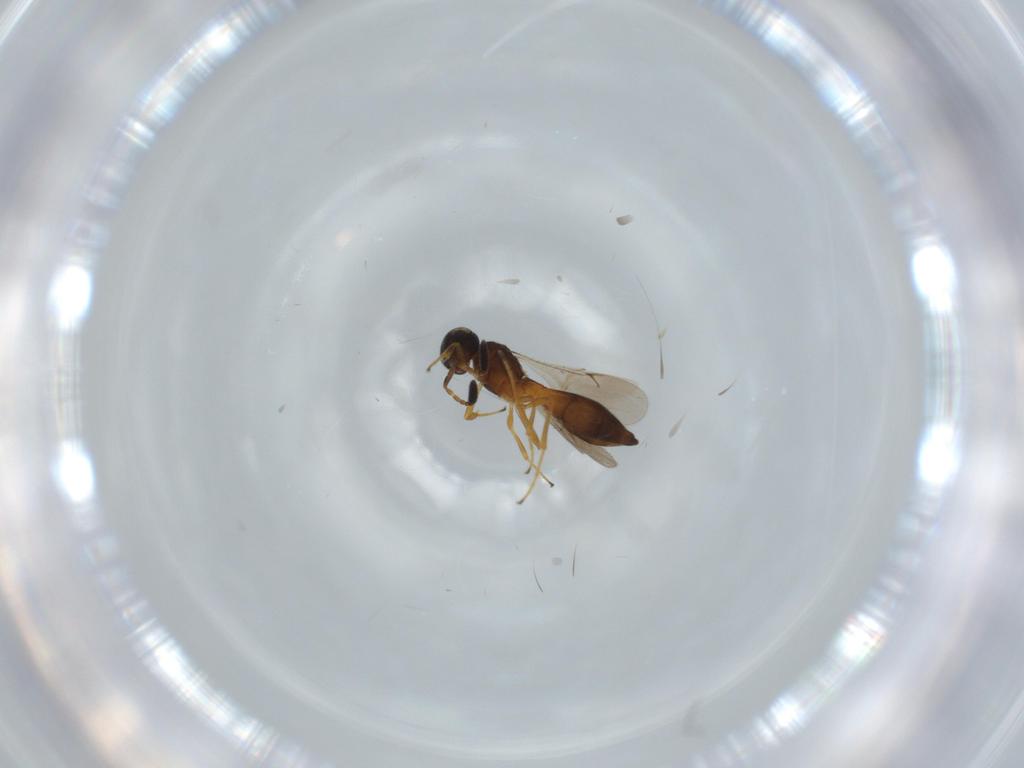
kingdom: Animalia
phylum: Arthropoda
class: Insecta
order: Hymenoptera
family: Scelionidae
